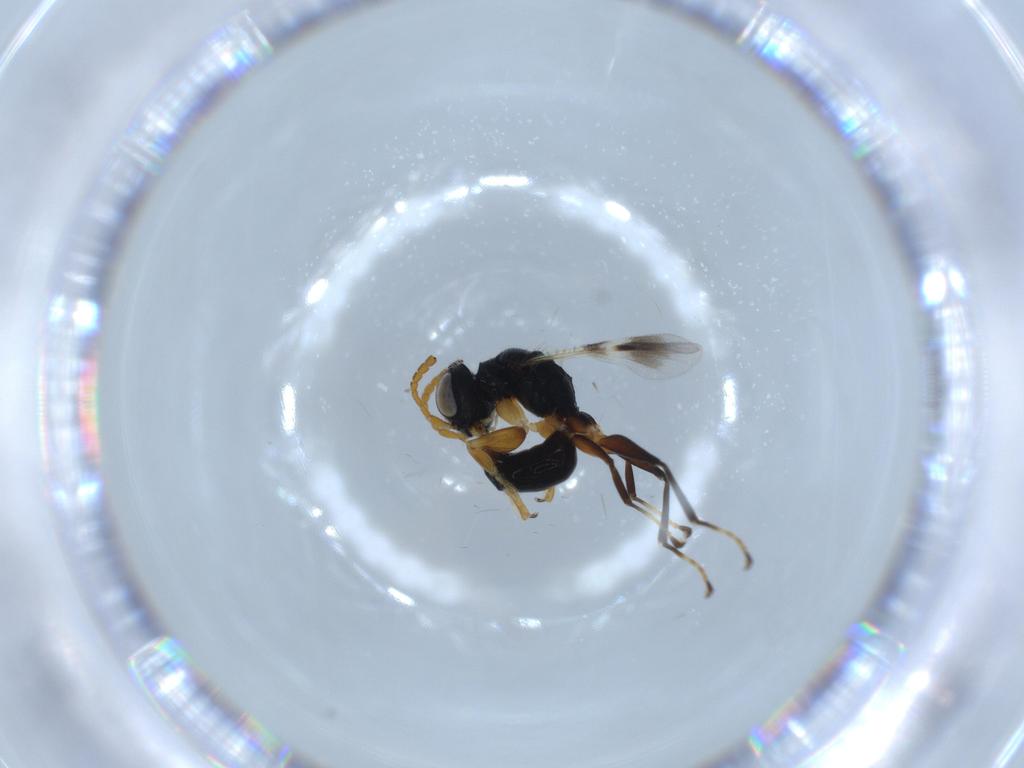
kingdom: Animalia
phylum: Arthropoda
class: Insecta
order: Hymenoptera
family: Dryinidae
